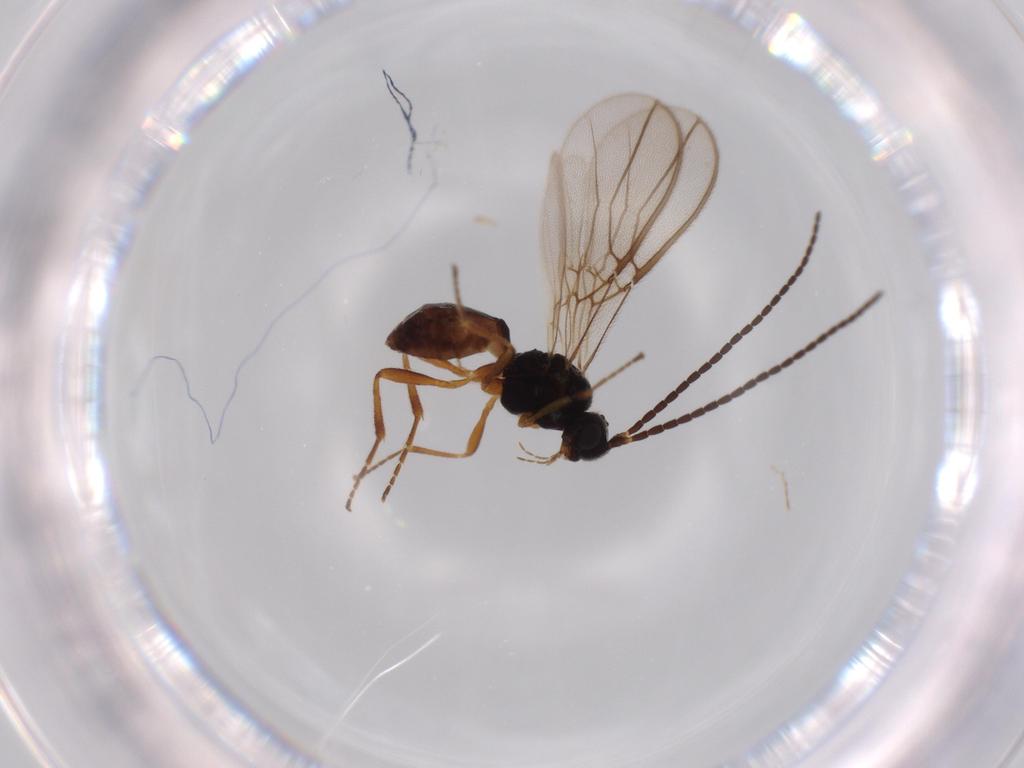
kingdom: Animalia
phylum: Arthropoda
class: Insecta
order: Hymenoptera
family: Braconidae
